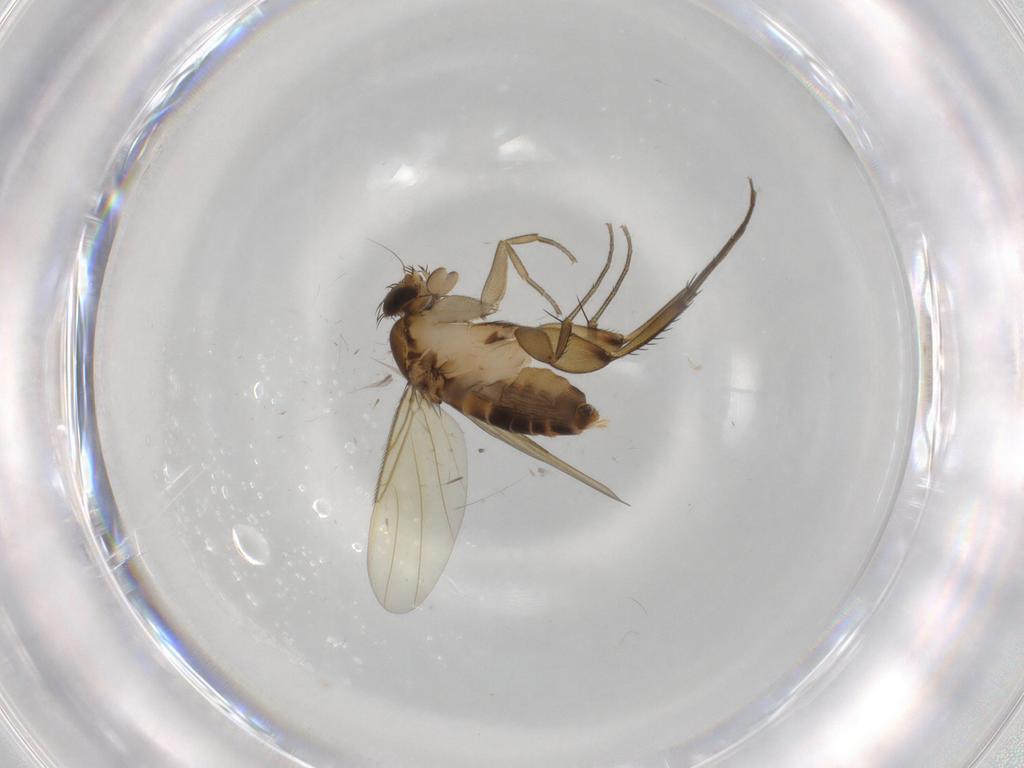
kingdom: Animalia
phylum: Arthropoda
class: Insecta
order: Diptera
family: Phoridae
